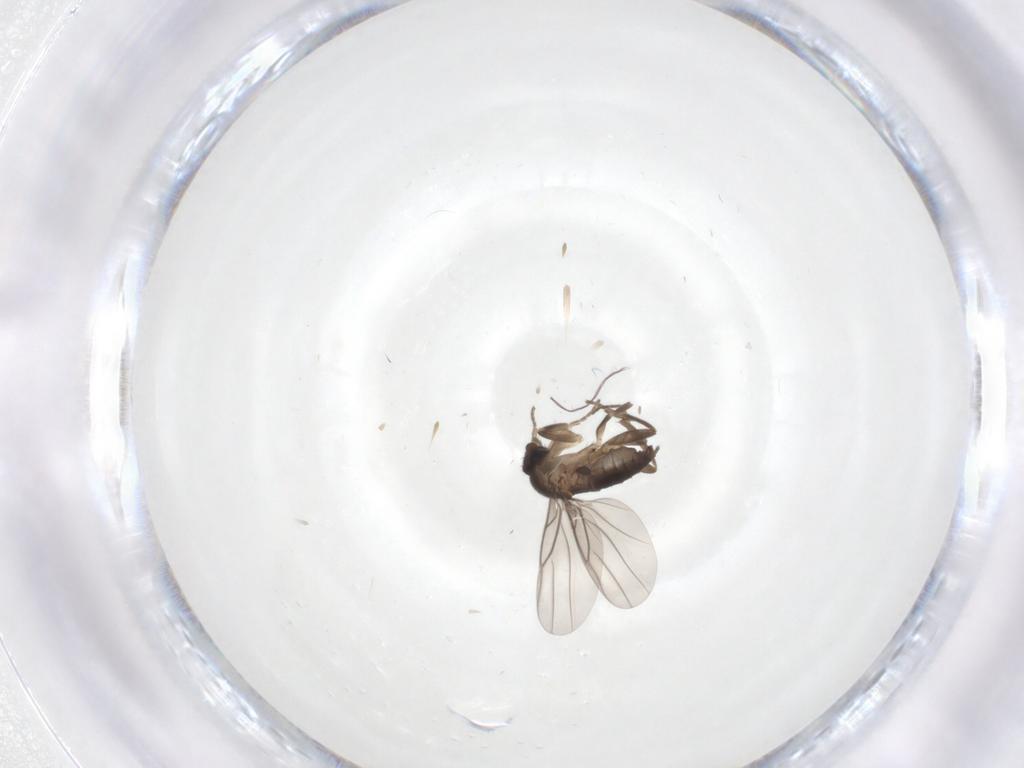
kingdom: Animalia
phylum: Arthropoda
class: Insecta
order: Diptera
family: Phoridae
